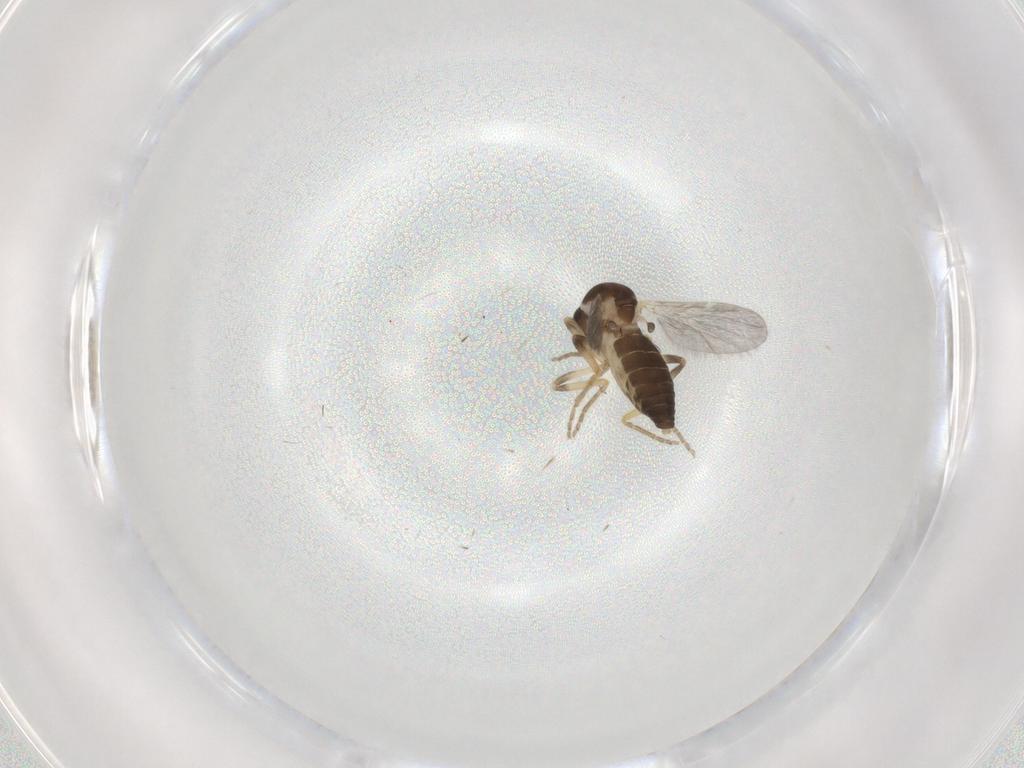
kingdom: Animalia
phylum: Arthropoda
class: Insecta
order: Diptera
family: Ceratopogonidae
